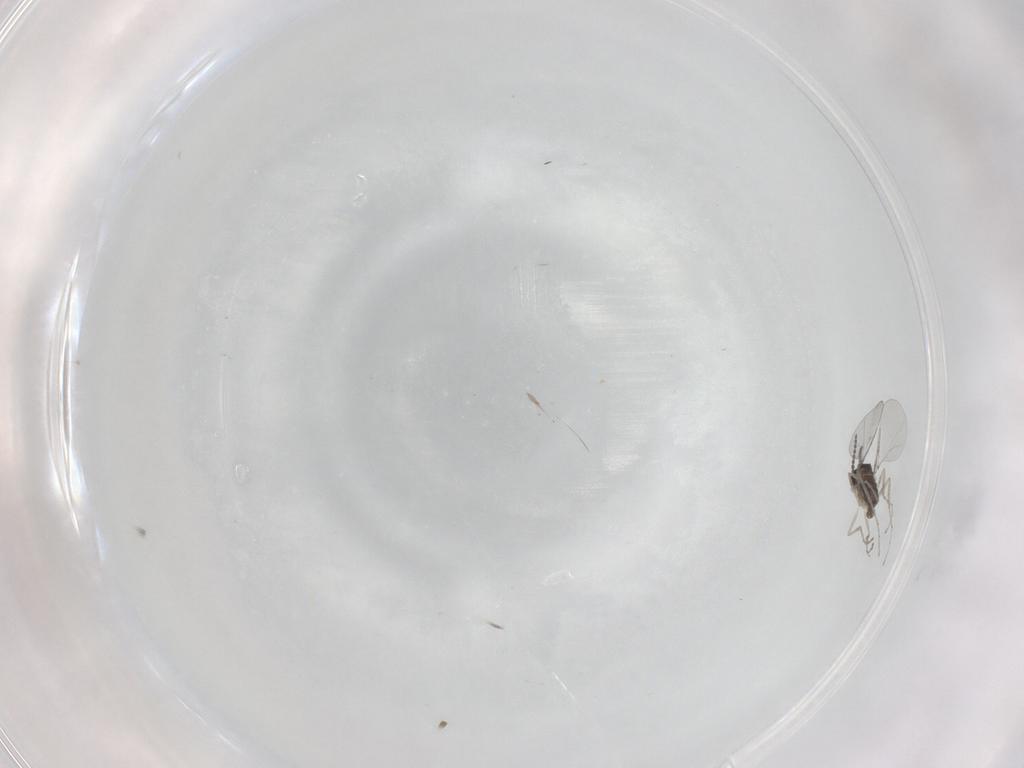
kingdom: Animalia
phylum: Arthropoda
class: Insecta
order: Diptera
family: Cecidomyiidae
